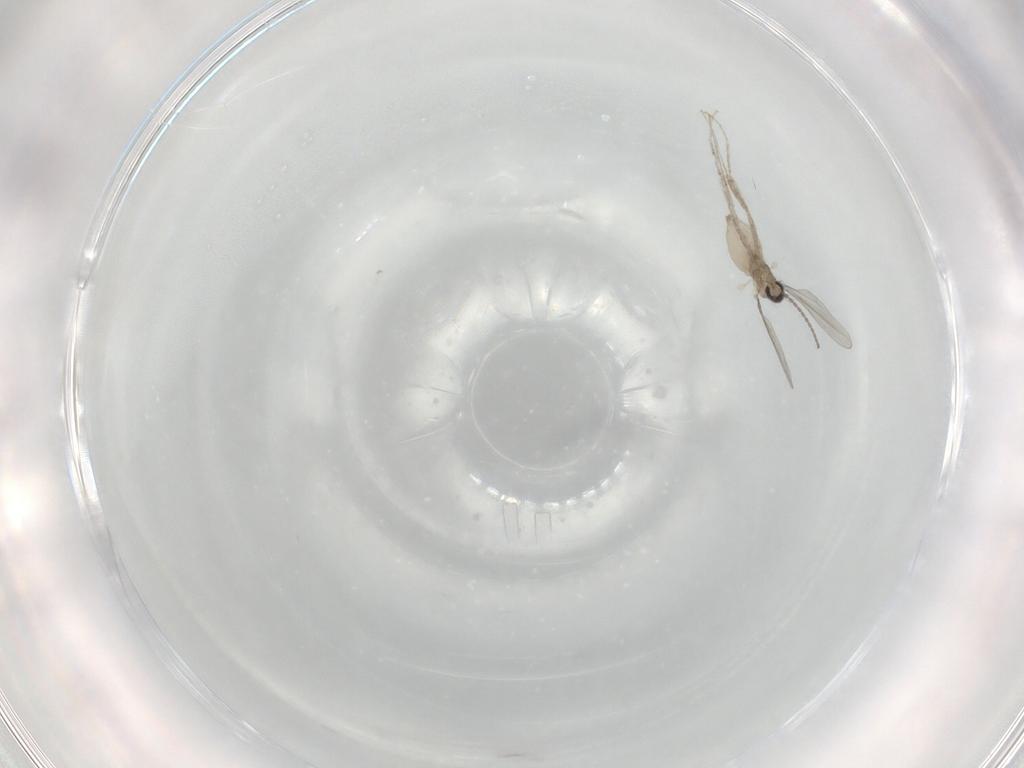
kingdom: Animalia
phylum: Arthropoda
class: Insecta
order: Diptera
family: Cecidomyiidae
